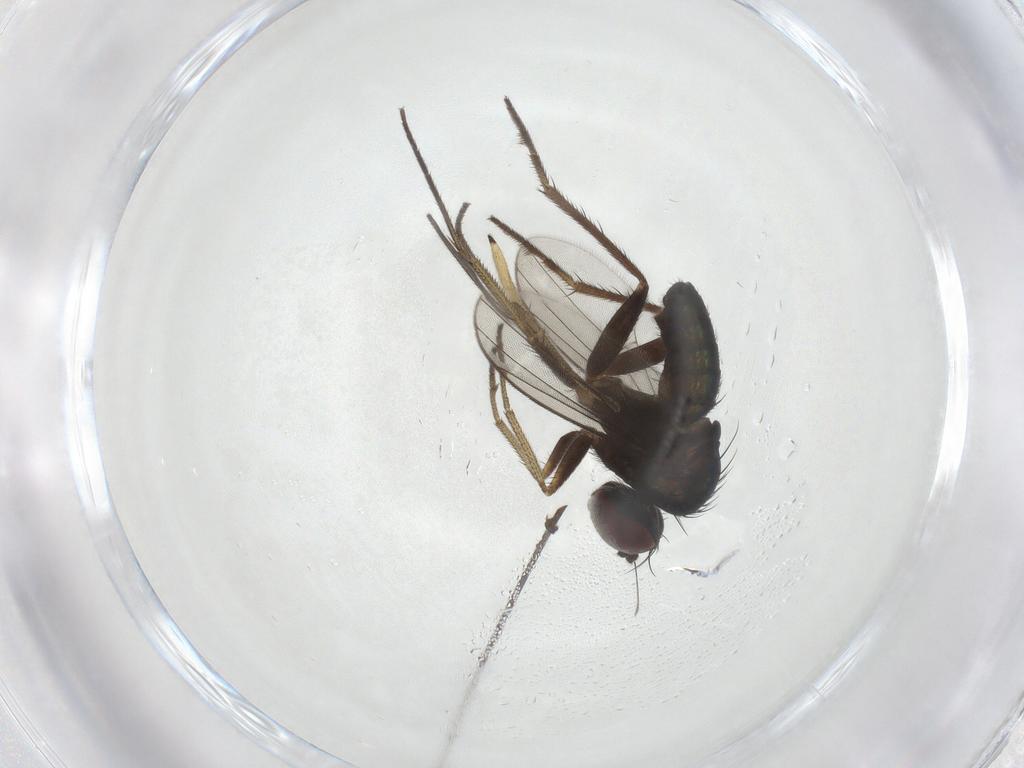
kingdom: Animalia
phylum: Arthropoda
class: Insecta
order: Diptera
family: Sciaridae
